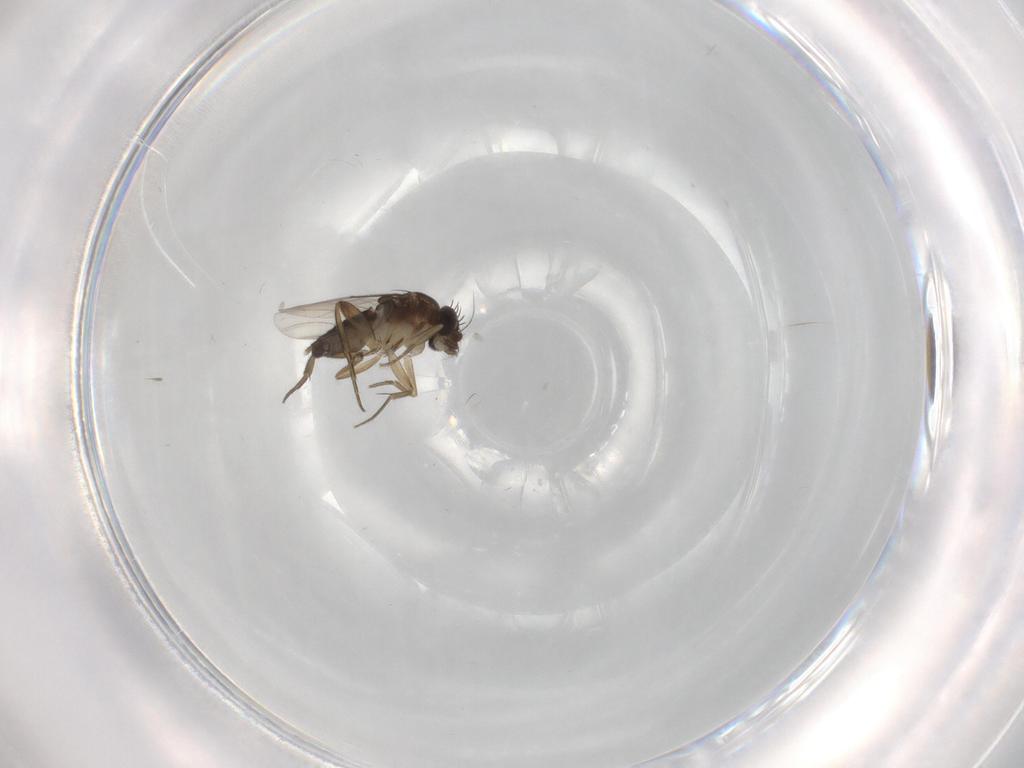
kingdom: Animalia
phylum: Arthropoda
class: Insecta
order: Diptera
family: Phoridae
